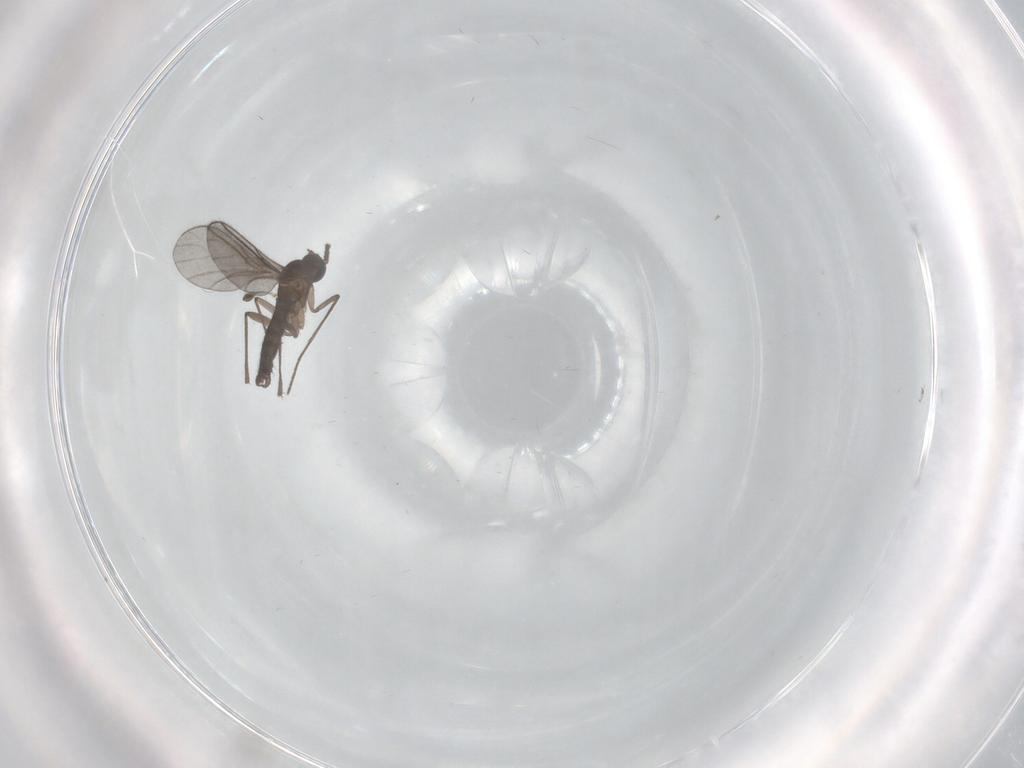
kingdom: Animalia
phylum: Arthropoda
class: Insecta
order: Diptera
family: Psychodidae
